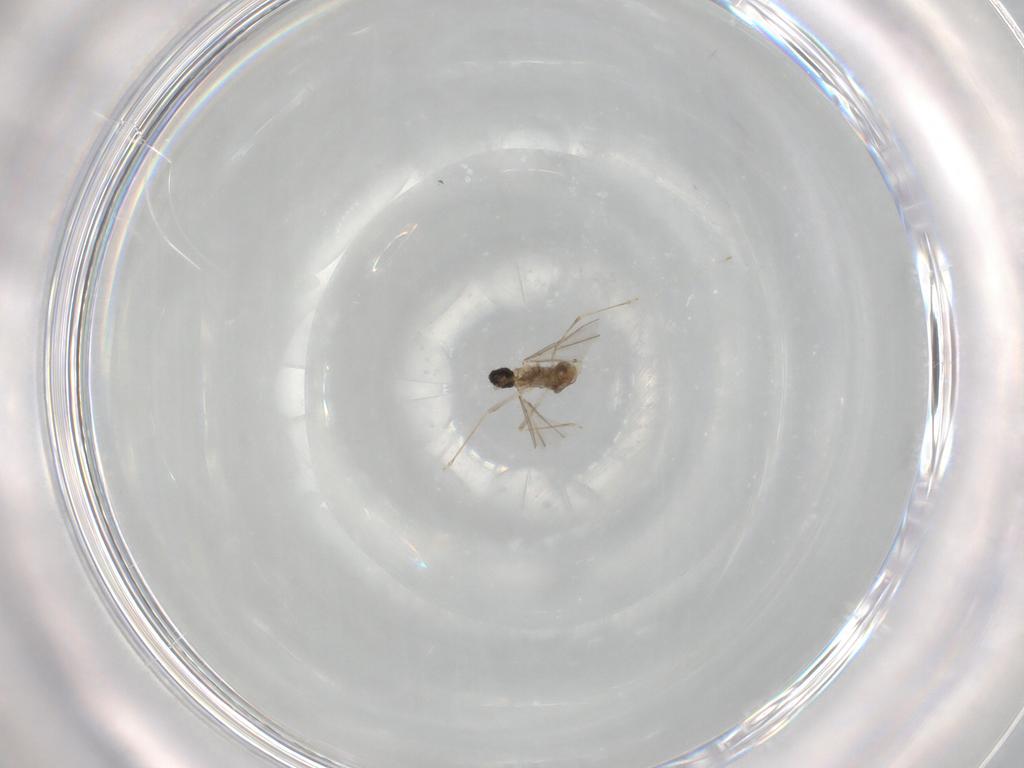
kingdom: Animalia
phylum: Arthropoda
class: Insecta
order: Diptera
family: Cecidomyiidae
